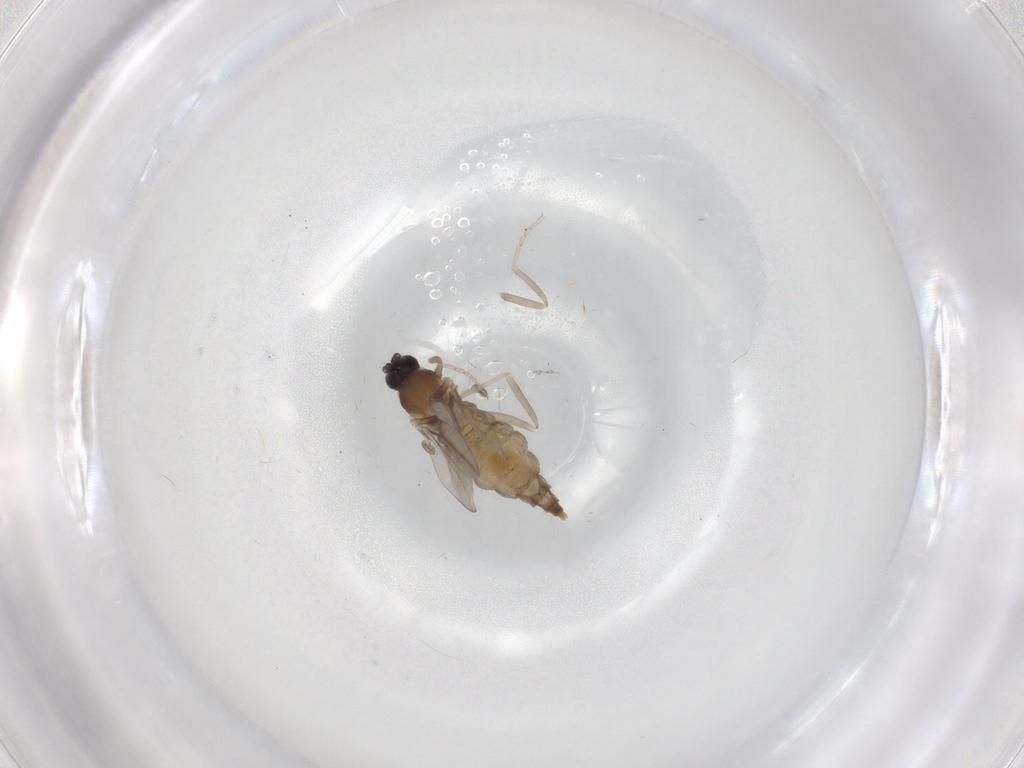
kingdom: Animalia
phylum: Arthropoda
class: Insecta
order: Diptera
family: Cecidomyiidae
